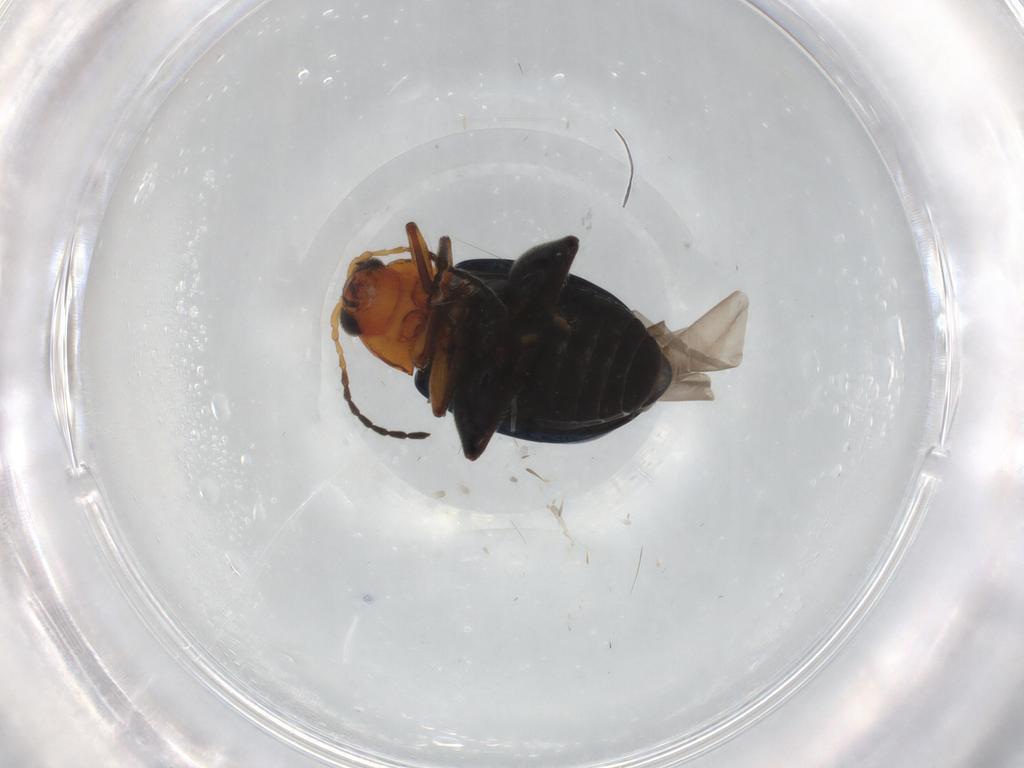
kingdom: Animalia
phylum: Arthropoda
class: Insecta
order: Coleoptera
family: Chrysomelidae
